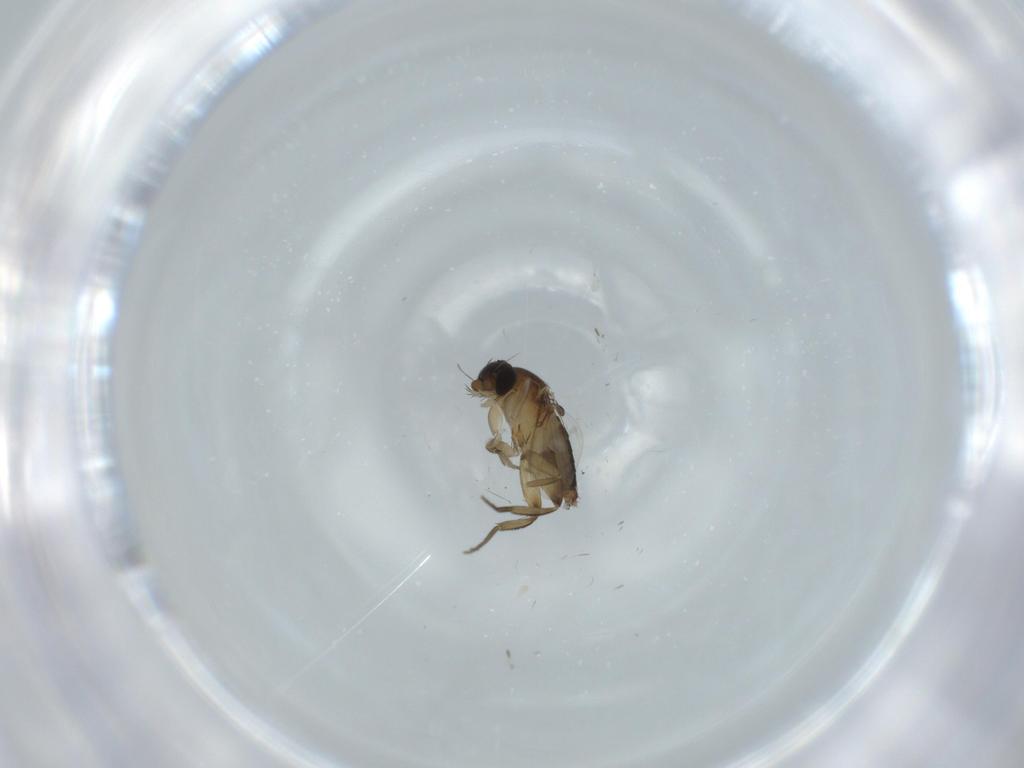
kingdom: Animalia
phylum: Arthropoda
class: Insecta
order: Diptera
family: Phoridae
